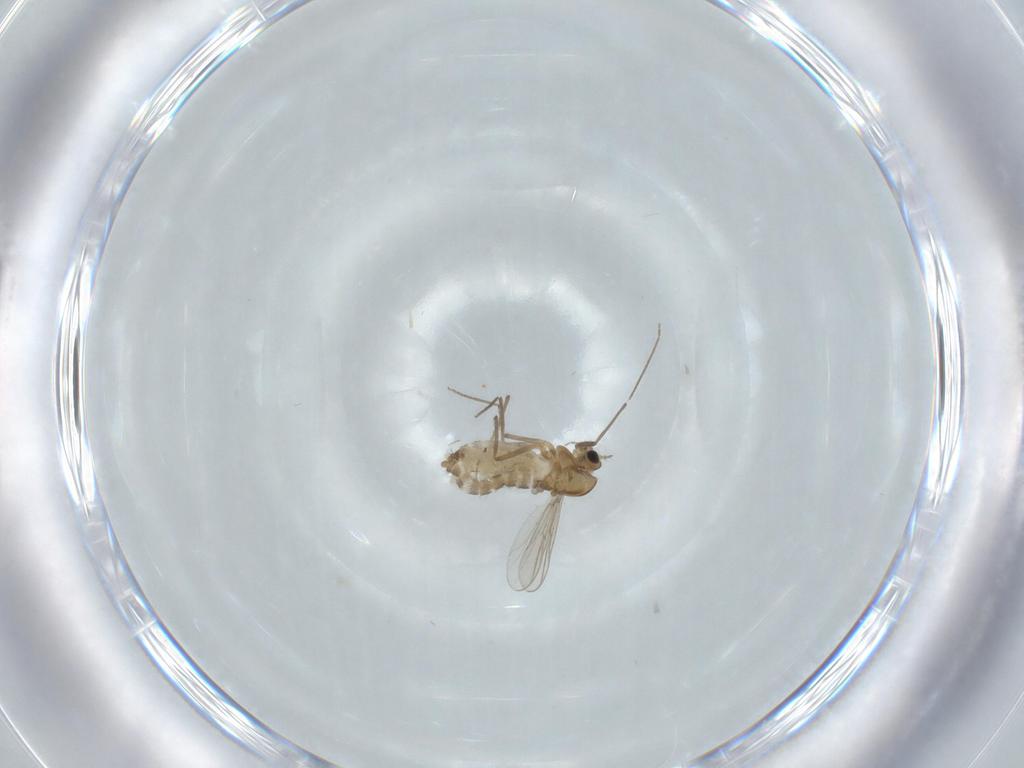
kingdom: Animalia
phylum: Arthropoda
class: Insecta
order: Diptera
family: Chironomidae
